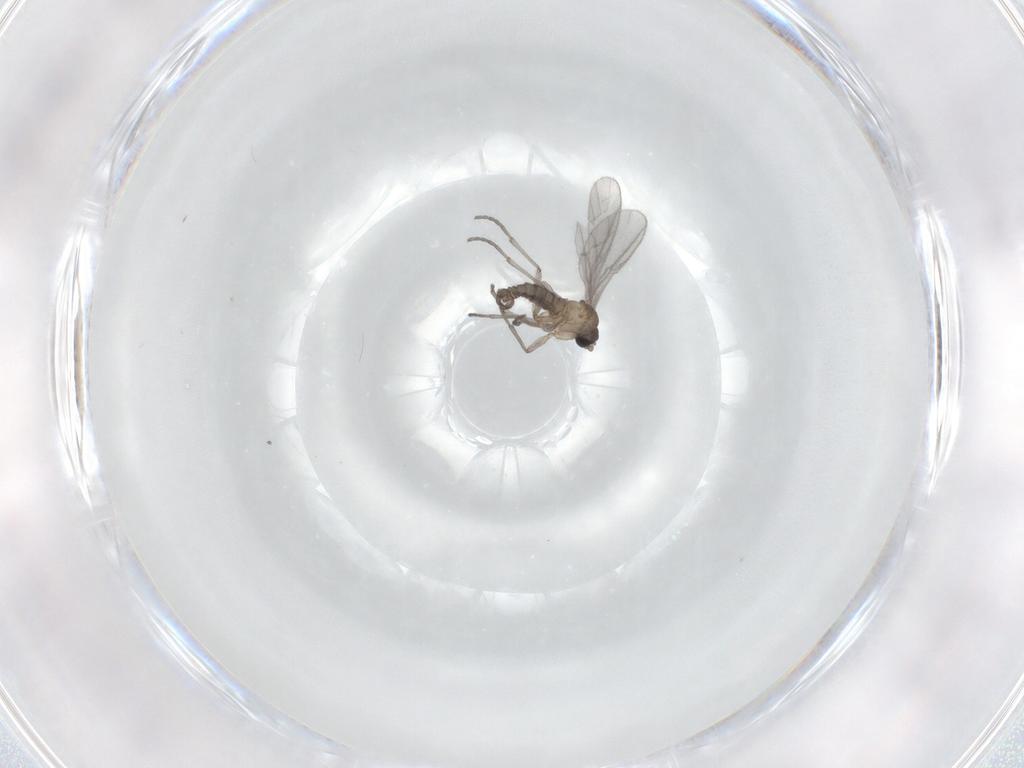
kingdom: Animalia
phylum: Arthropoda
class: Insecta
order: Diptera
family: Sciaridae
